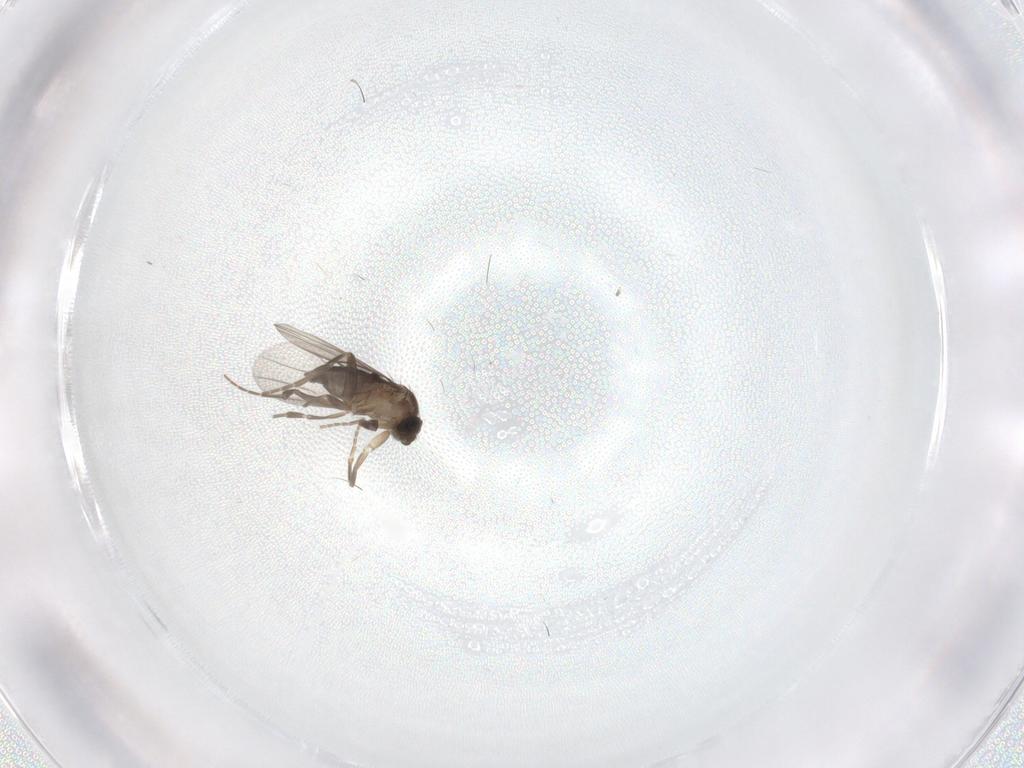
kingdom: Animalia
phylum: Arthropoda
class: Insecta
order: Diptera
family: Phoridae
